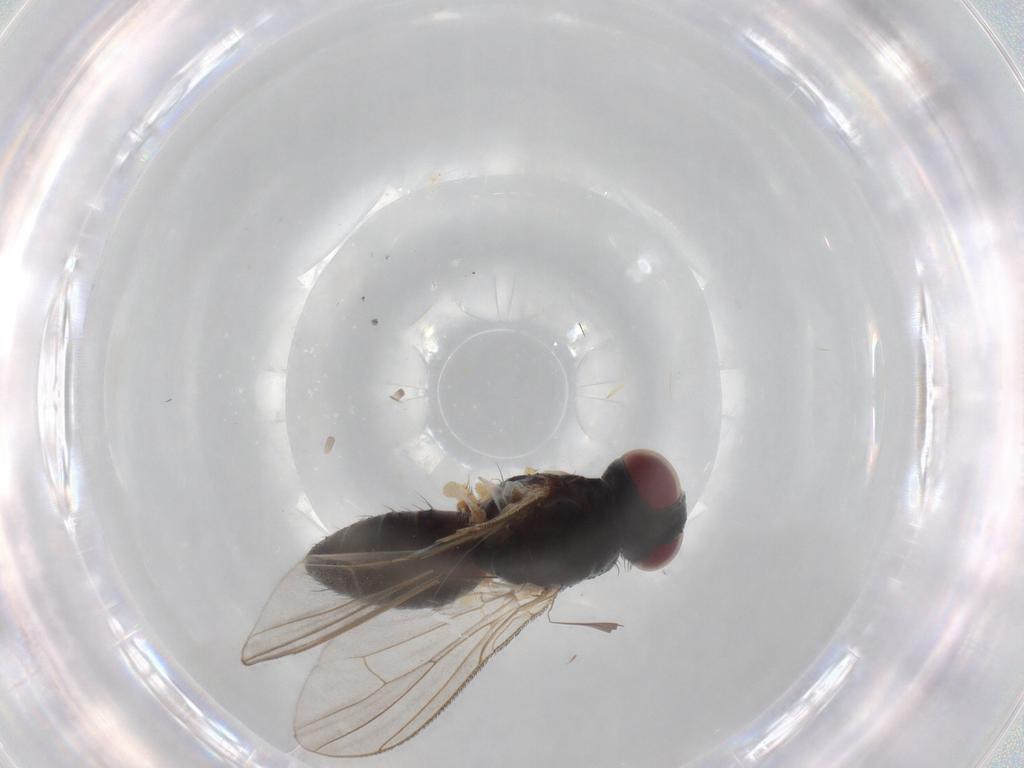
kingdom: Animalia
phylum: Arthropoda
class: Insecta
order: Diptera
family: Muscidae
